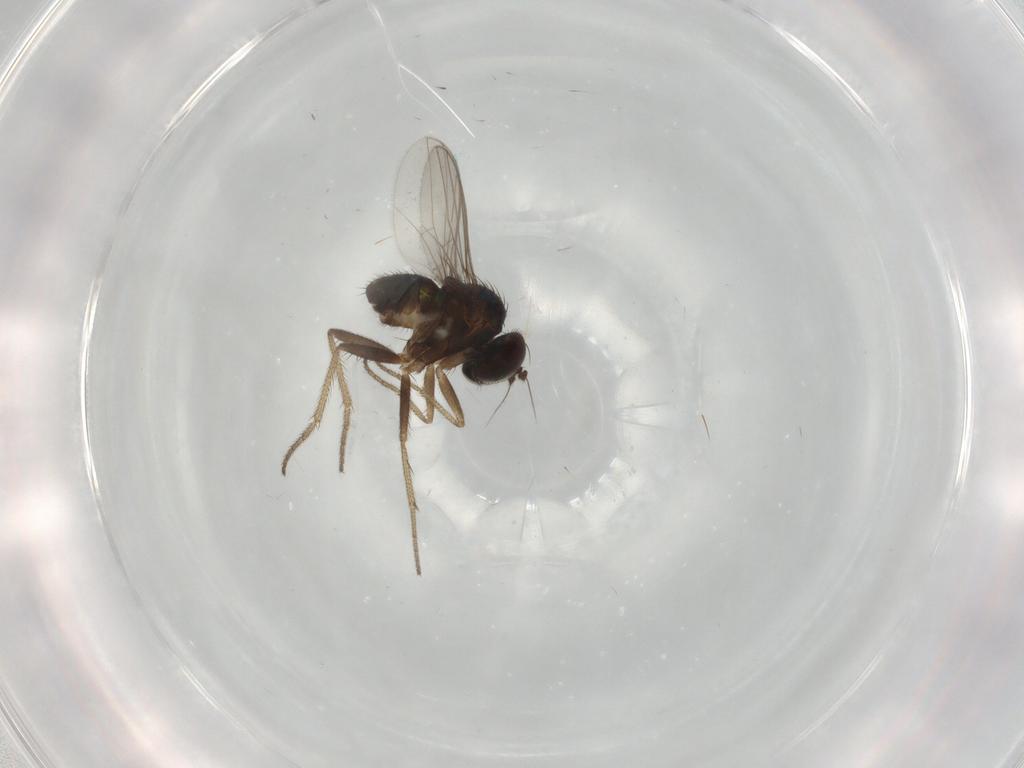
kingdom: Animalia
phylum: Arthropoda
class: Insecta
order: Diptera
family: Dolichopodidae
